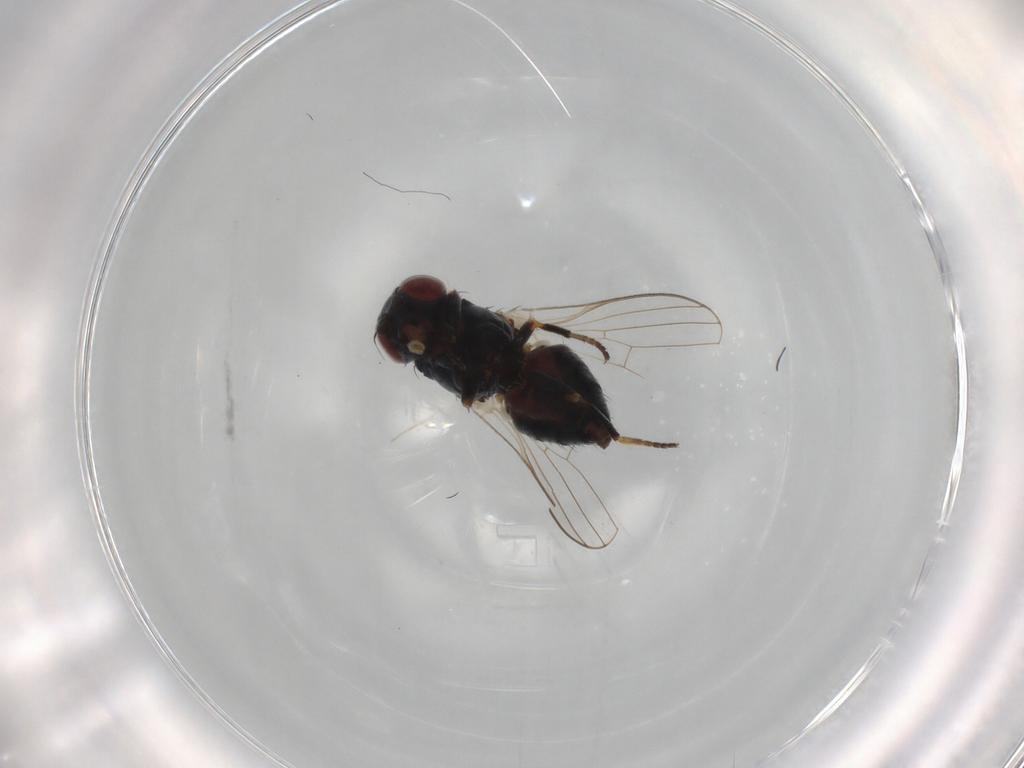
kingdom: Animalia
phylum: Arthropoda
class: Insecta
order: Diptera
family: Chamaemyiidae
